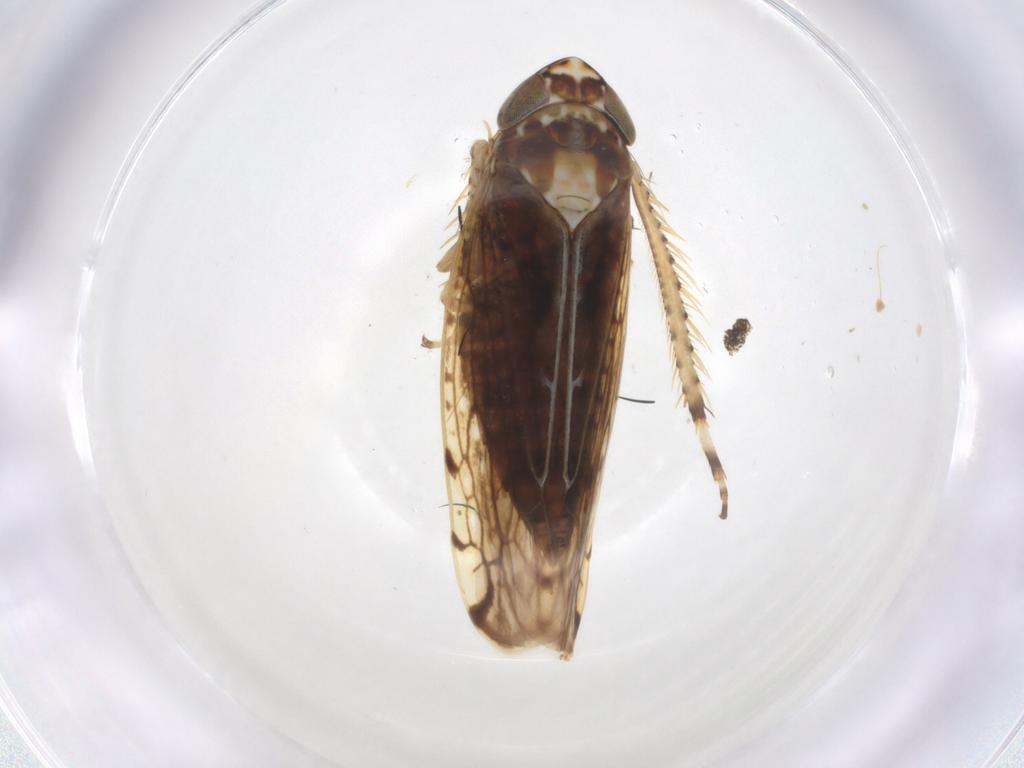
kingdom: Animalia
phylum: Arthropoda
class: Insecta
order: Hemiptera
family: Cicadellidae
